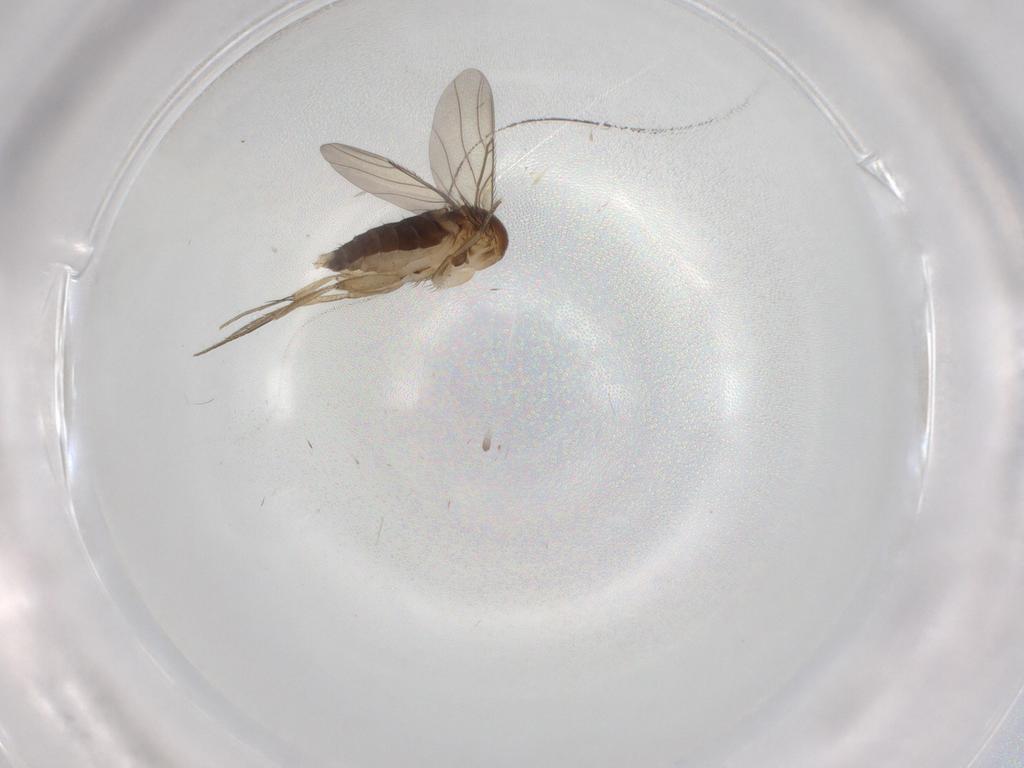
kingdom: Animalia
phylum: Arthropoda
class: Insecta
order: Diptera
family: Phoridae
